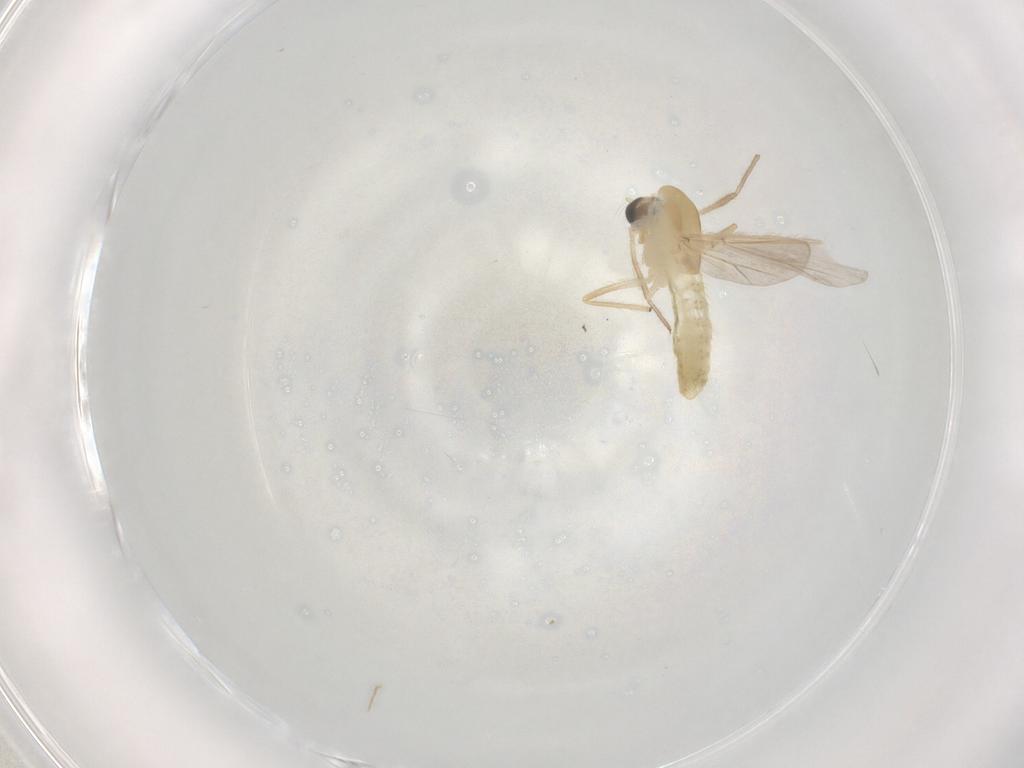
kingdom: Animalia
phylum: Arthropoda
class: Insecta
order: Diptera
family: Chironomidae
